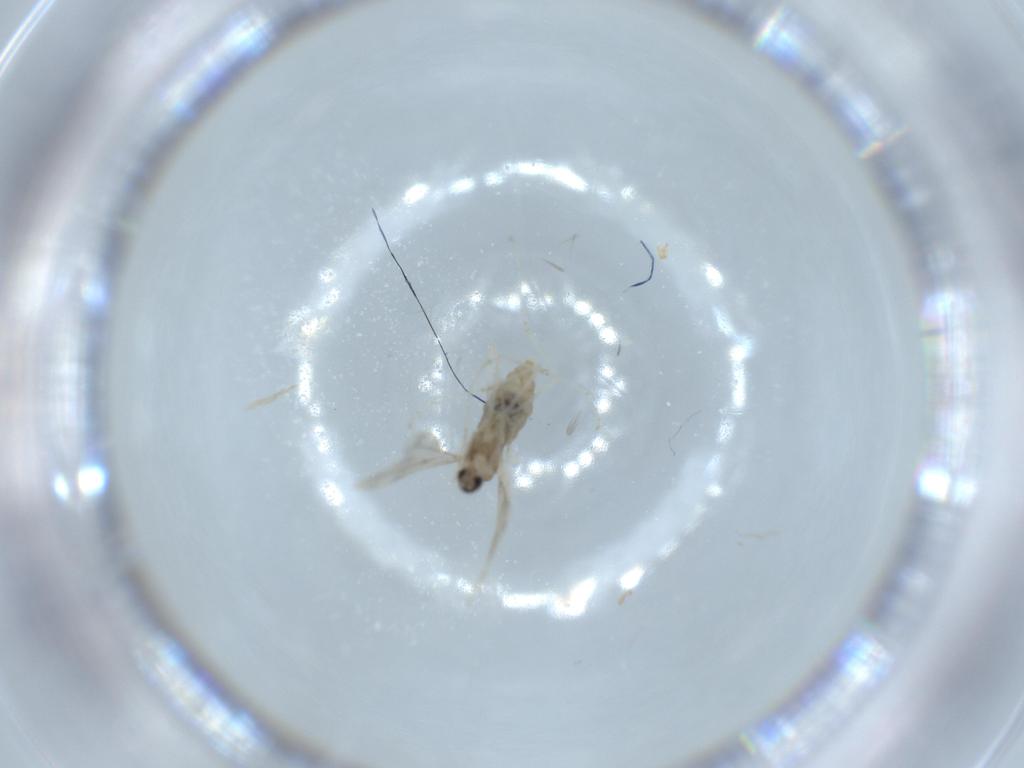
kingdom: Animalia
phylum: Arthropoda
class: Insecta
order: Diptera
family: Cecidomyiidae
